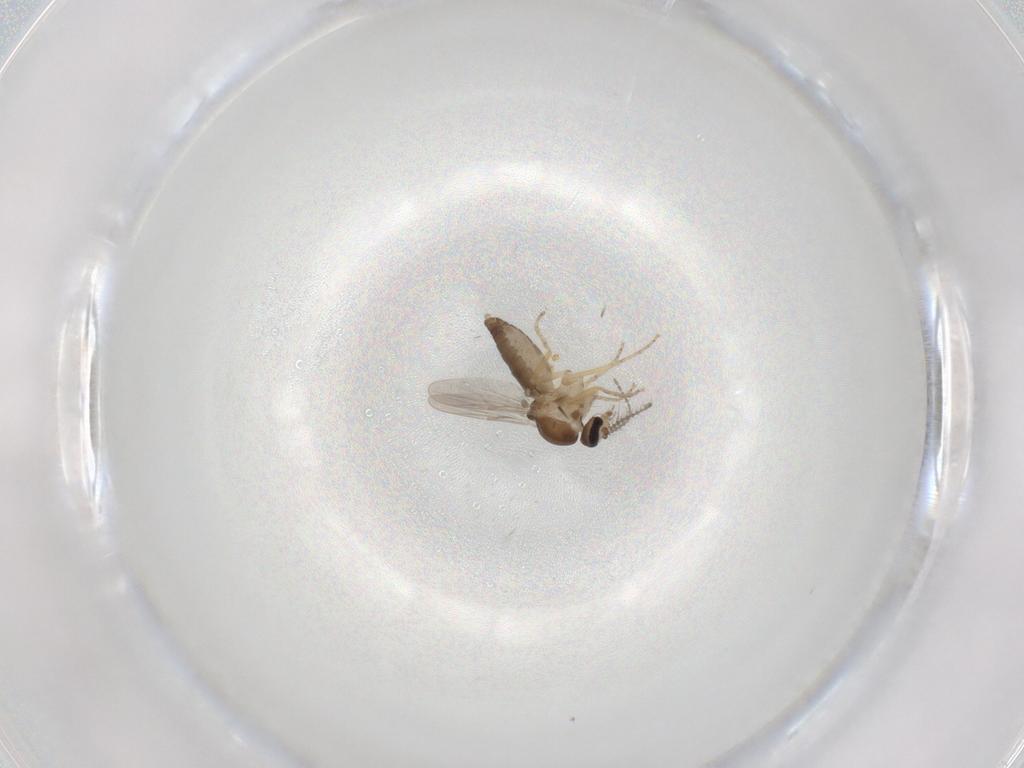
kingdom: Animalia
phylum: Arthropoda
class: Insecta
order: Diptera
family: Ceratopogonidae
